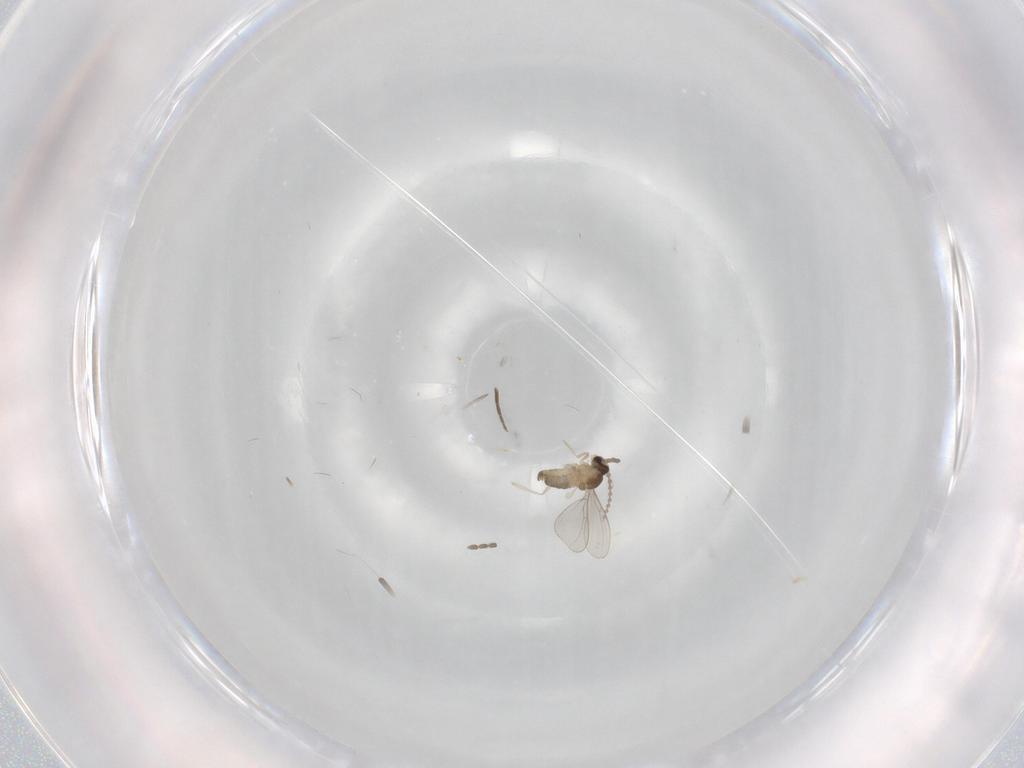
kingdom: Animalia
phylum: Arthropoda
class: Insecta
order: Diptera
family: Cecidomyiidae
